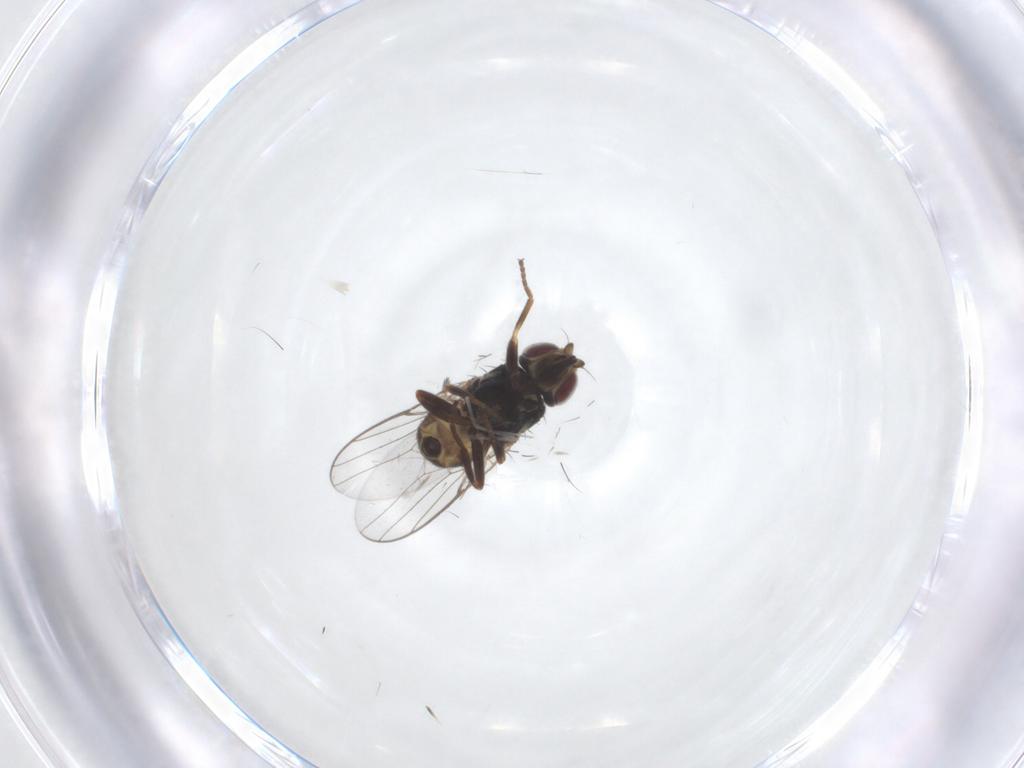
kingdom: Animalia
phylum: Arthropoda
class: Insecta
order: Diptera
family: Chloropidae
